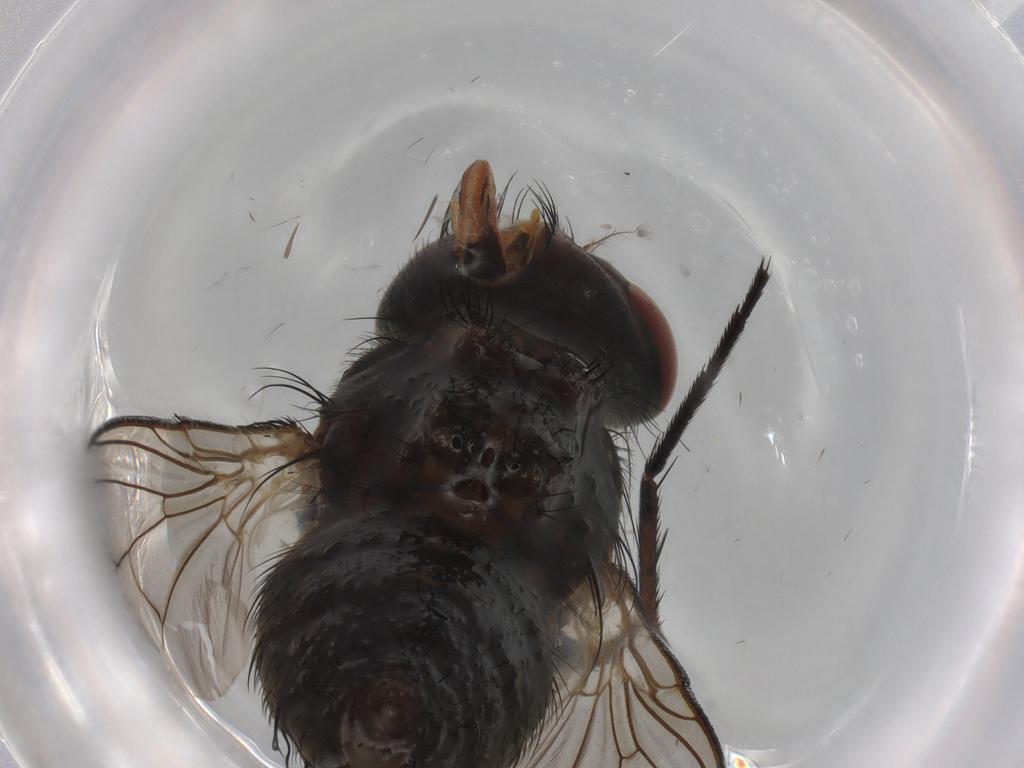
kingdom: Animalia
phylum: Arthropoda
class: Insecta
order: Diptera
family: Tachinidae
